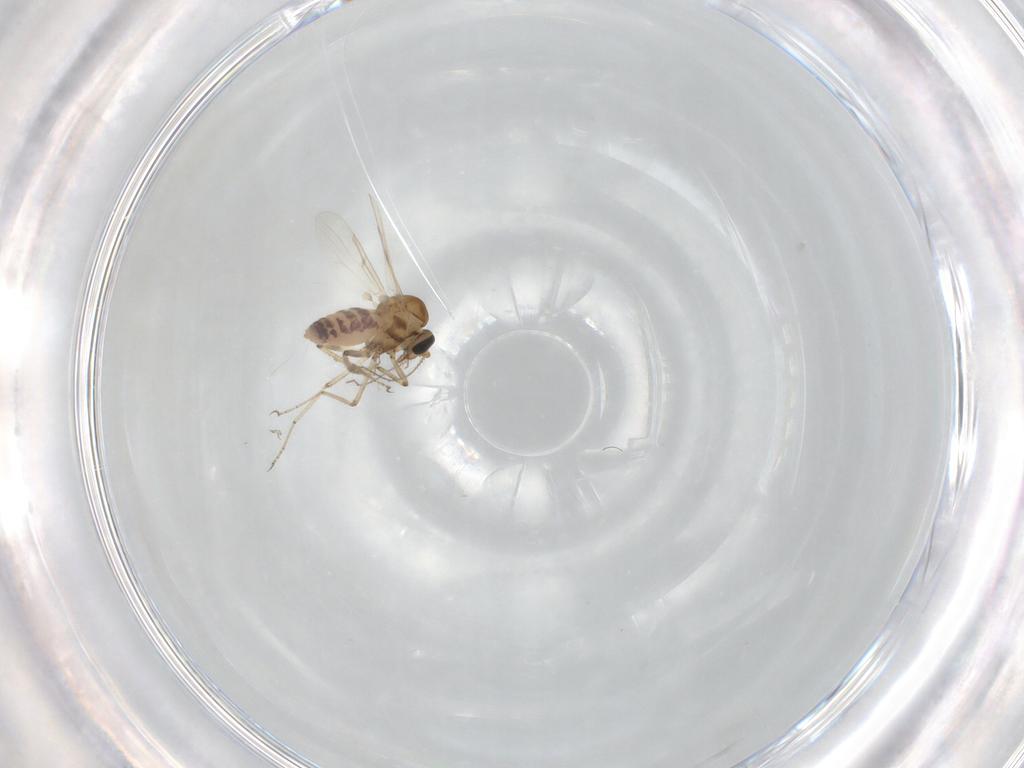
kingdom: Animalia
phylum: Arthropoda
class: Insecta
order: Diptera
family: Ceratopogonidae
